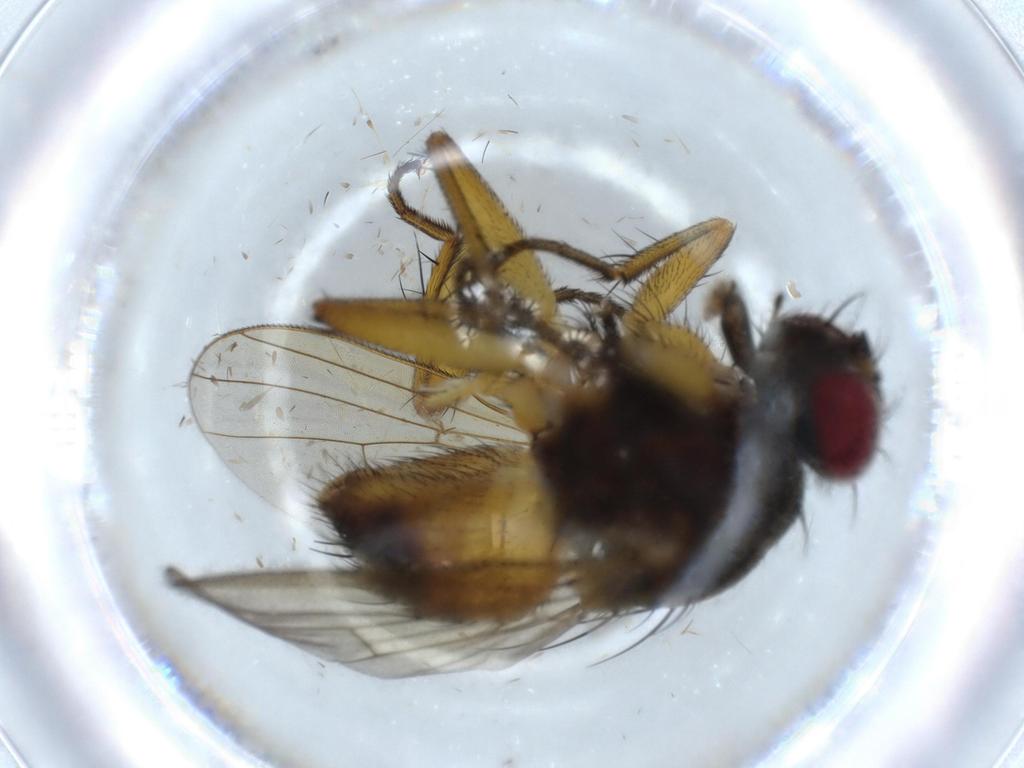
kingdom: Animalia
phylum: Arthropoda
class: Insecta
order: Diptera
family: Muscidae
